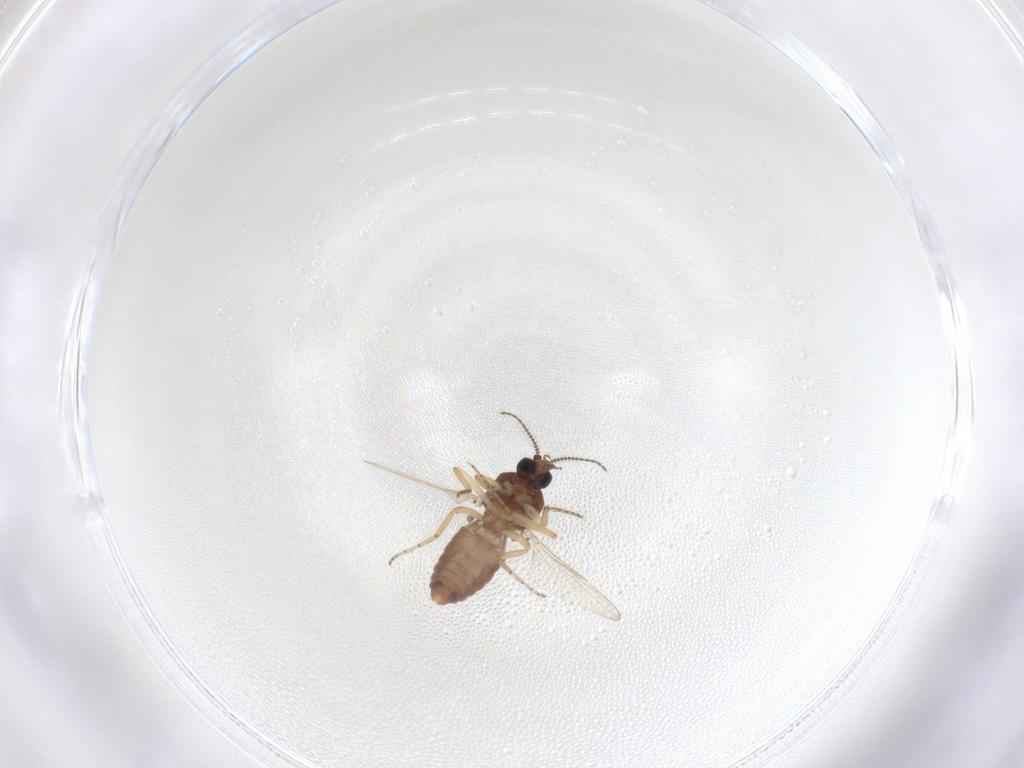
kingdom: Animalia
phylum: Arthropoda
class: Insecta
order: Diptera
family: Ceratopogonidae
